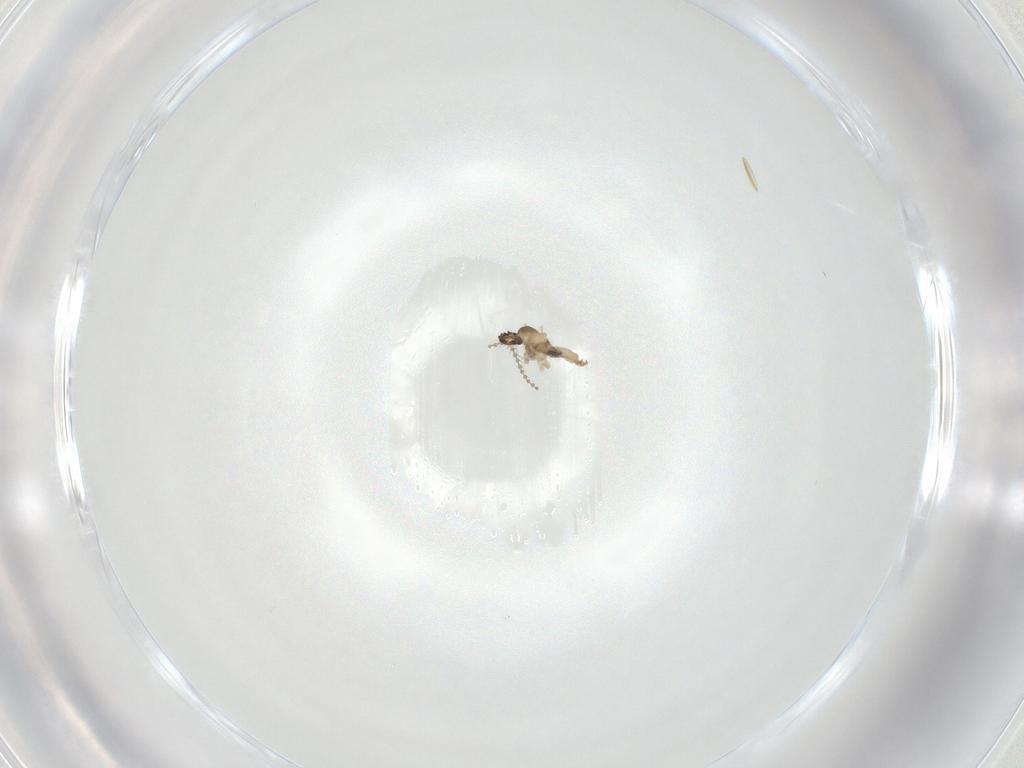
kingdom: Animalia
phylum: Arthropoda
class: Insecta
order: Diptera
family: Cecidomyiidae
